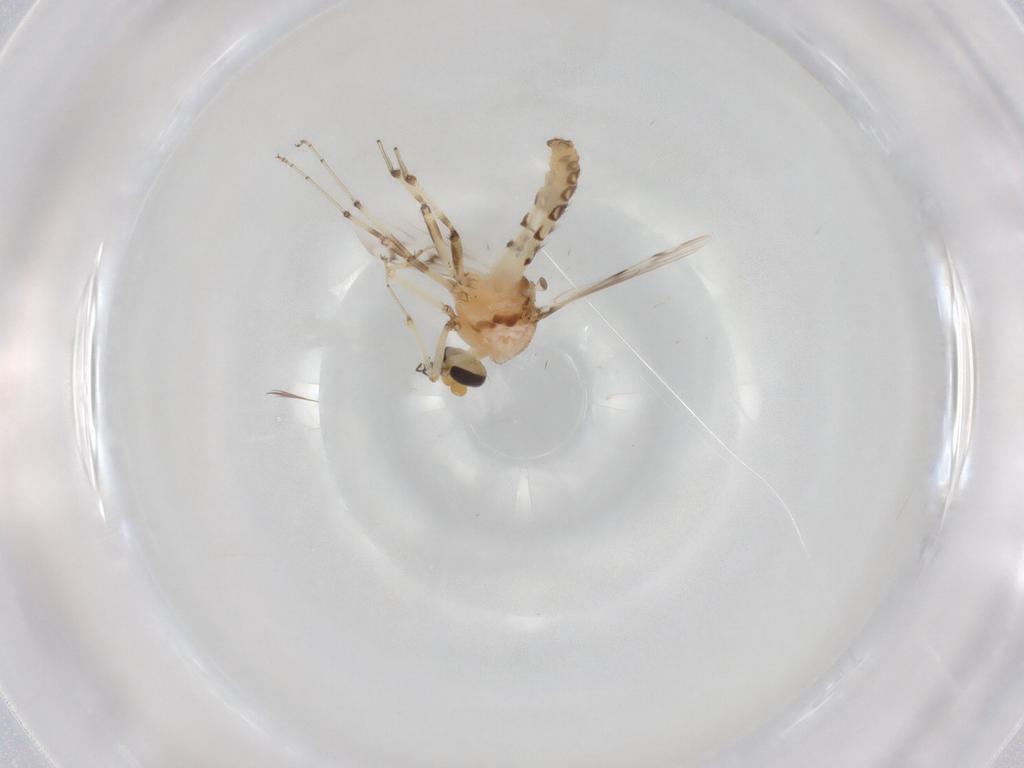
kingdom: Animalia
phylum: Arthropoda
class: Insecta
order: Diptera
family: Ceratopogonidae
